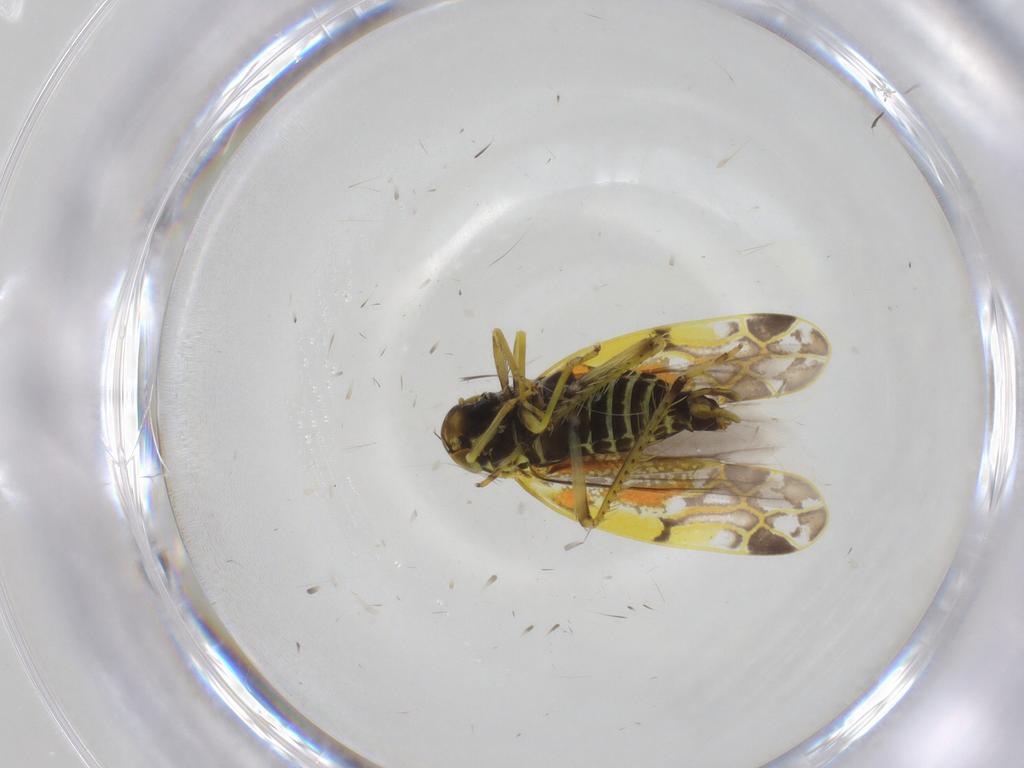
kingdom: Animalia
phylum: Arthropoda
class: Insecta
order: Hemiptera
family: Cicadellidae
